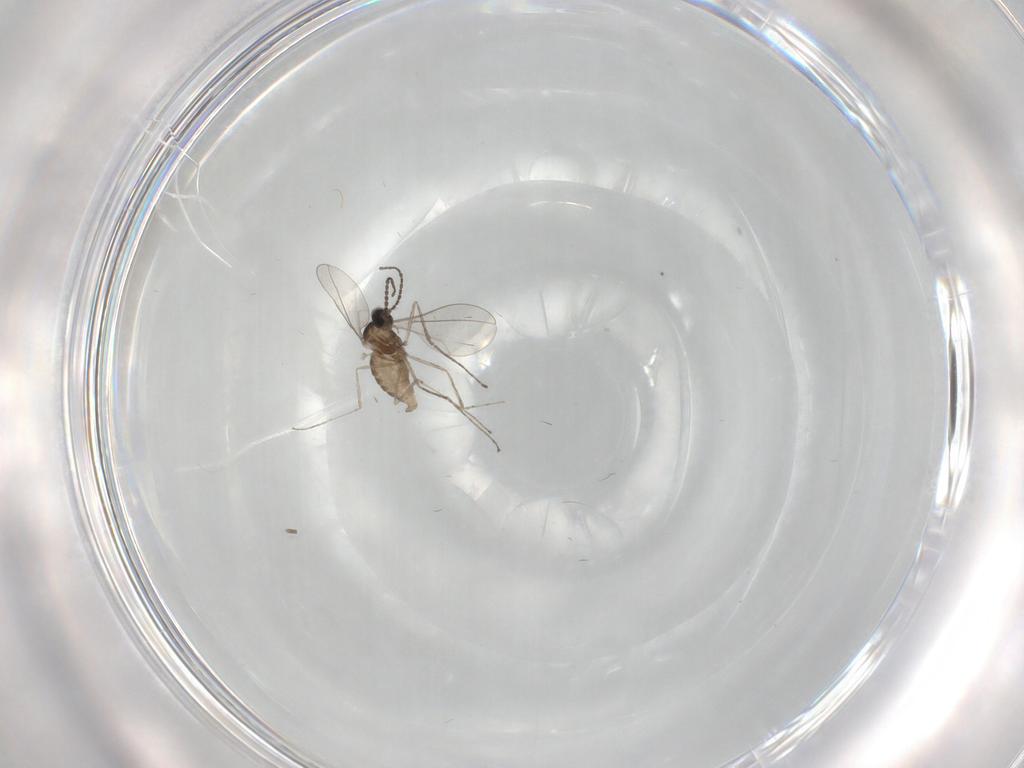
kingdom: Animalia
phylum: Arthropoda
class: Insecta
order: Diptera
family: Cecidomyiidae
